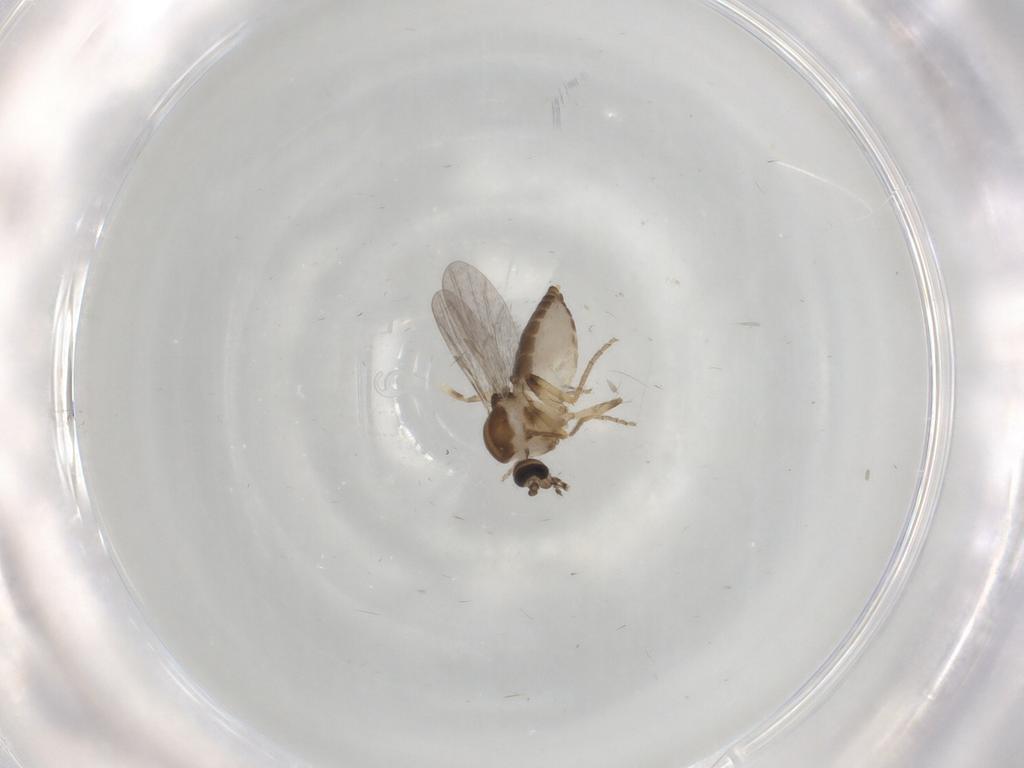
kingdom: Animalia
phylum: Arthropoda
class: Insecta
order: Diptera
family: Ceratopogonidae
